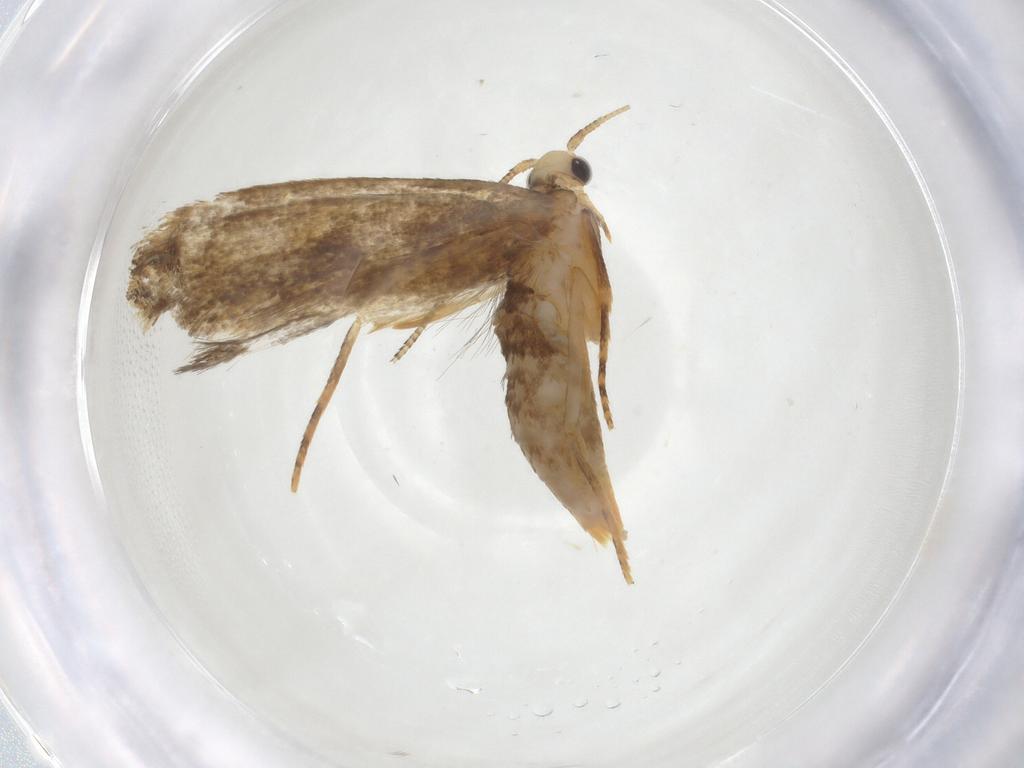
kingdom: Animalia
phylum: Arthropoda
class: Insecta
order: Lepidoptera
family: Tineidae
